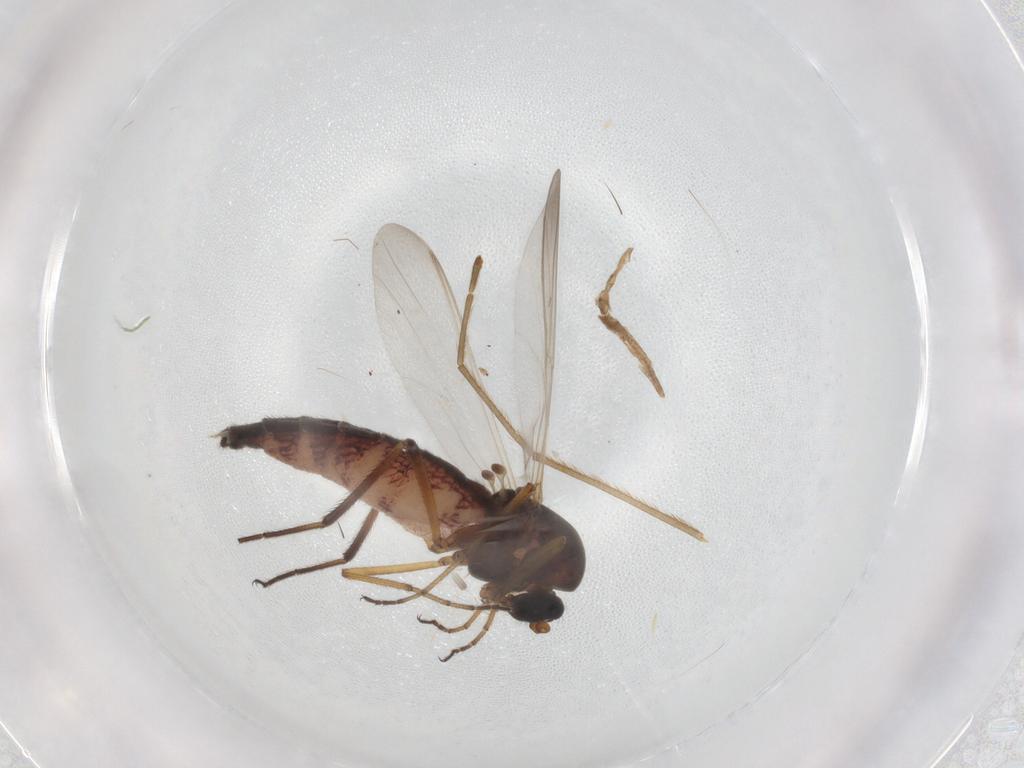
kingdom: Animalia
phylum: Arthropoda
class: Insecta
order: Diptera
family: Ceratopogonidae
